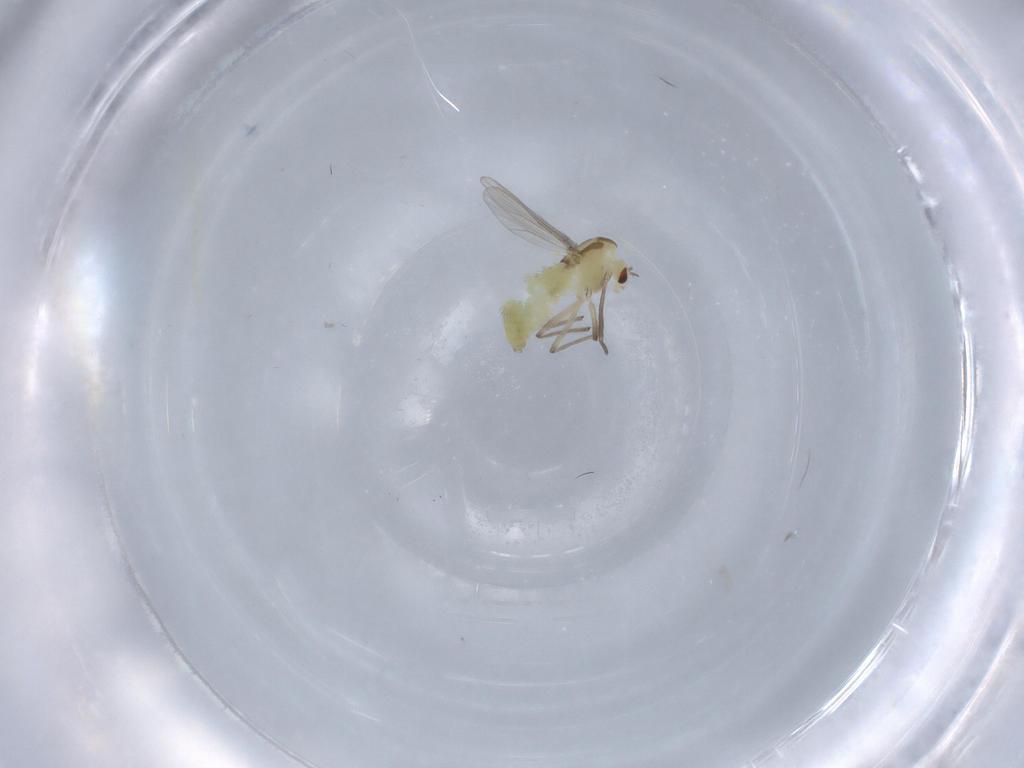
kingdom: Animalia
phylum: Arthropoda
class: Insecta
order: Diptera
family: Chironomidae
